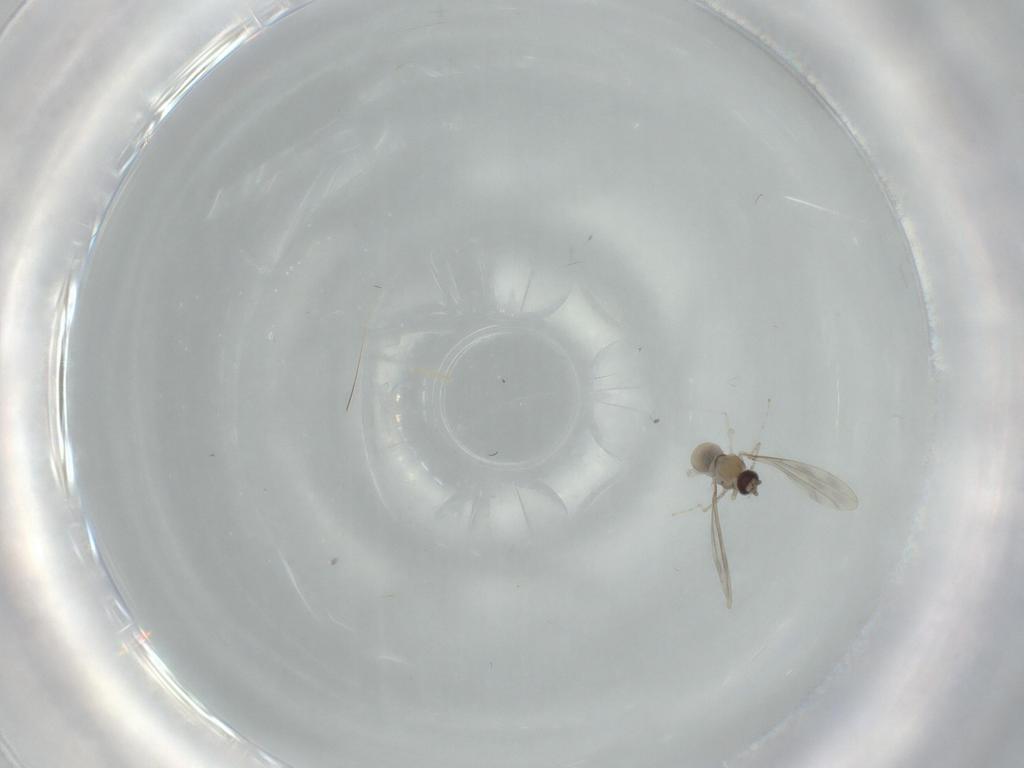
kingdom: Animalia
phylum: Arthropoda
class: Insecta
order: Diptera
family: Cecidomyiidae
